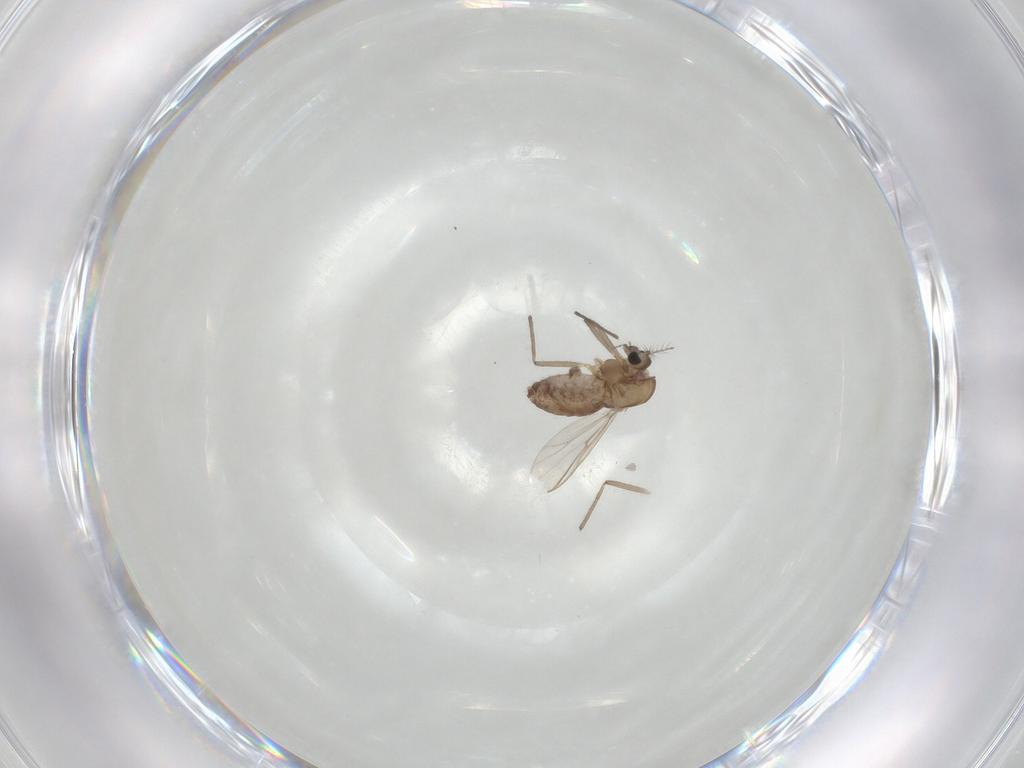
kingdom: Animalia
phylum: Arthropoda
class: Insecta
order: Diptera
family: Chironomidae
